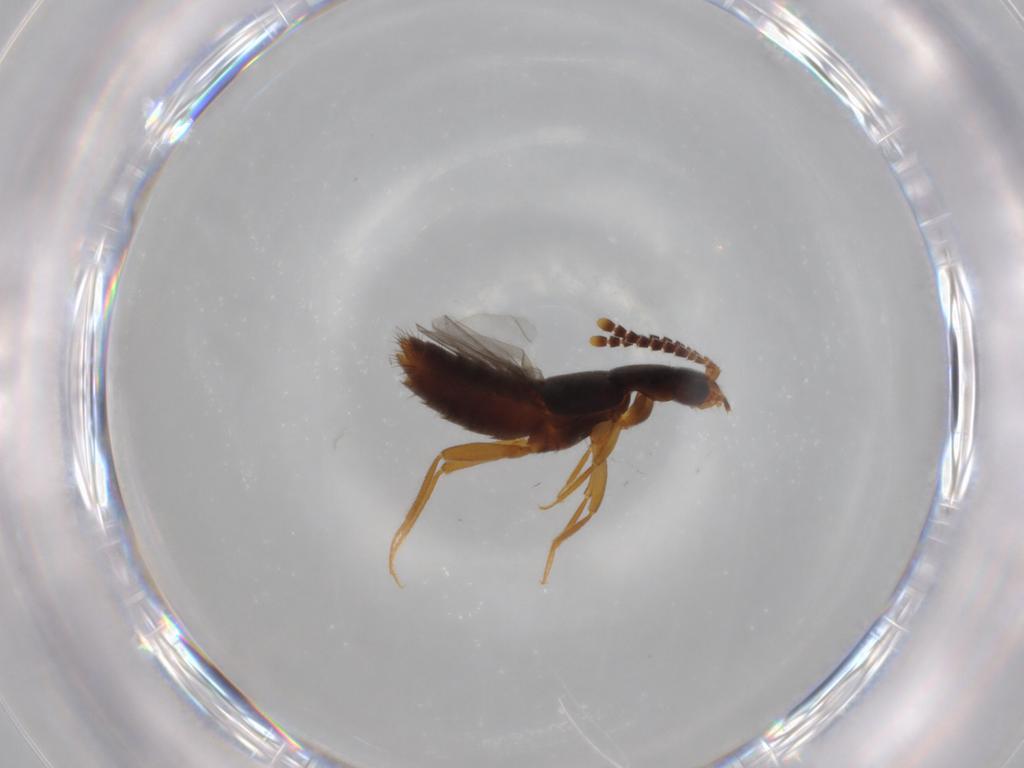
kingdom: Animalia
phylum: Arthropoda
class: Insecta
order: Coleoptera
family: Staphylinidae
